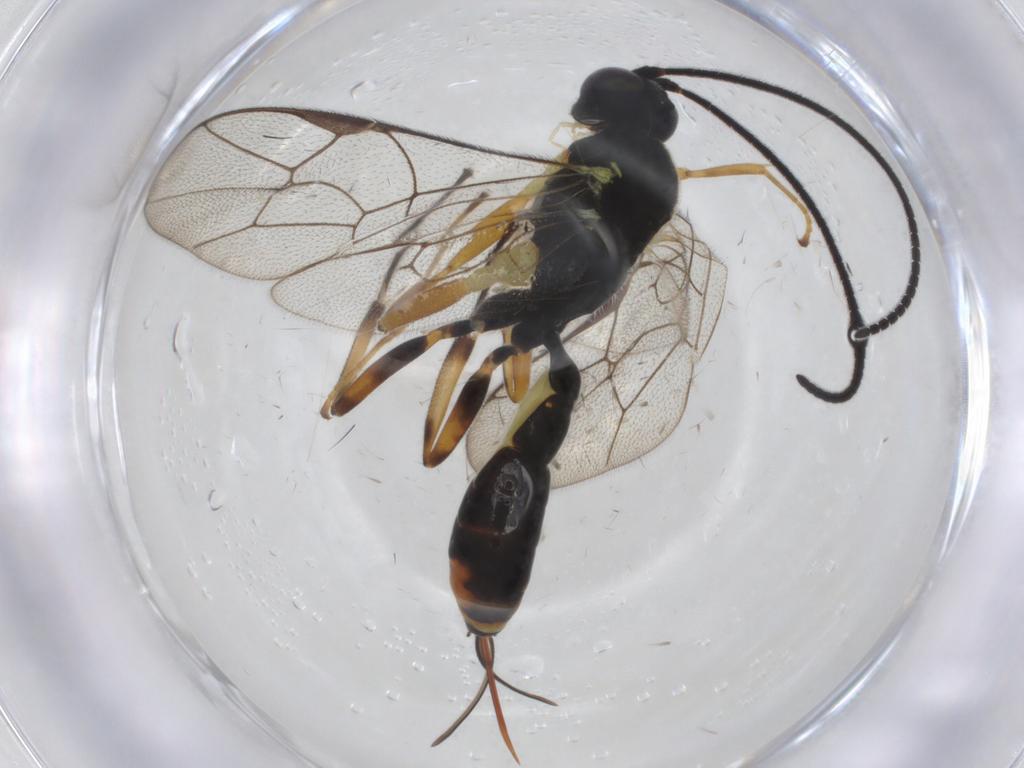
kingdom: Animalia
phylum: Arthropoda
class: Insecta
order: Hymenoptera
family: Ichneumonidae
